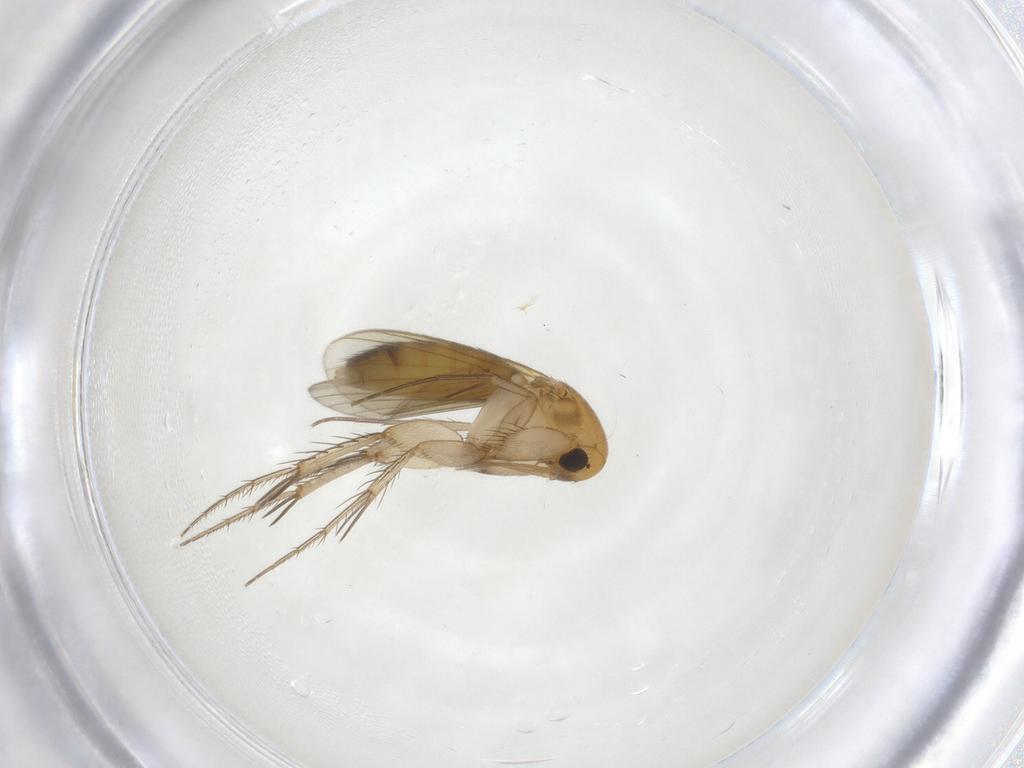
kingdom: Animalia
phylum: Arthropoda
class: Insecta
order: Diptera
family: Mycetophilidae
